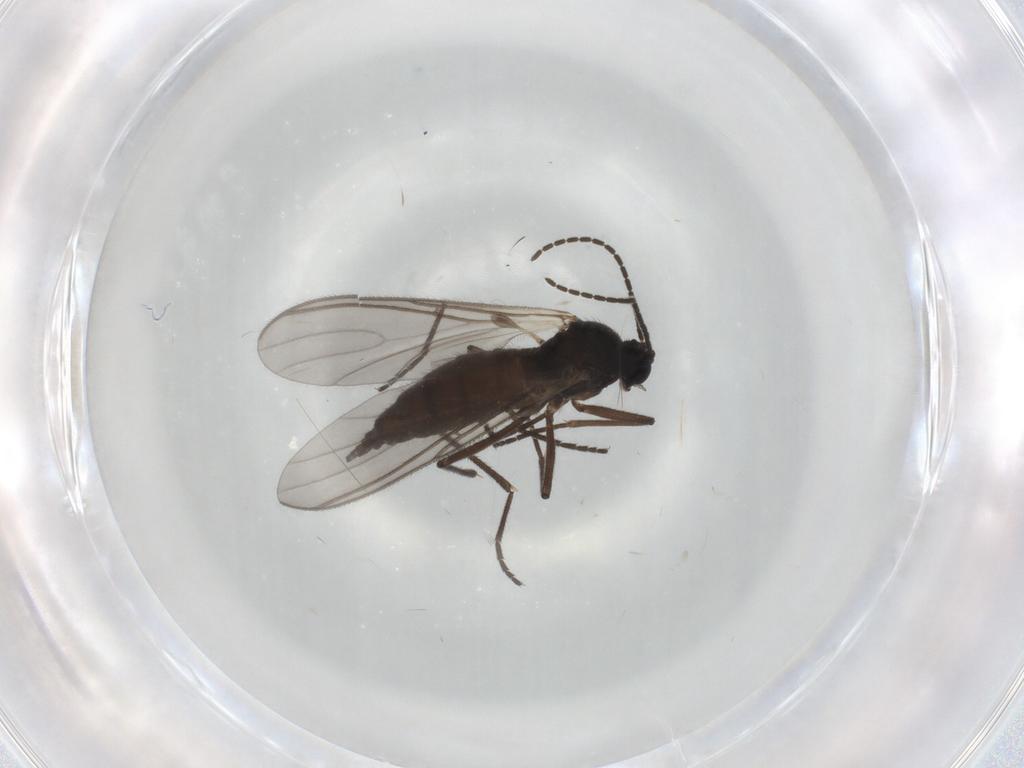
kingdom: Animalia
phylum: Arthropoda
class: Insecta
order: Diptera
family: Sciaridae
